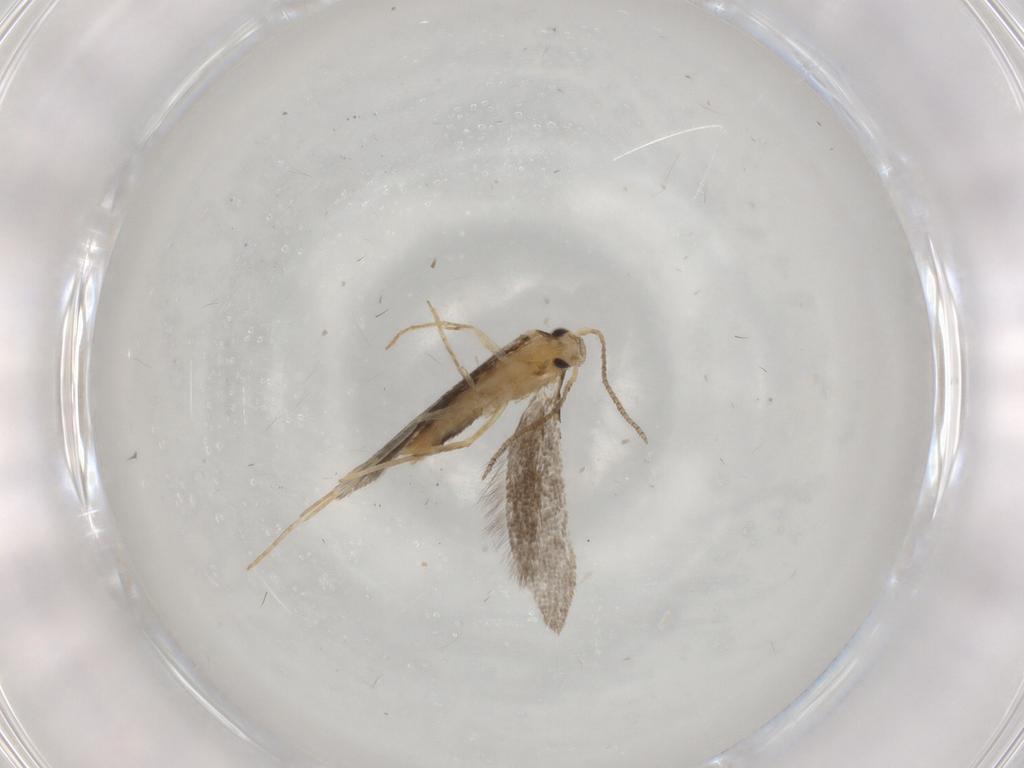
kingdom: Animalia
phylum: Arthropoda
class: Insecta
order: Lepidoptera
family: Schreckensteiniidae
